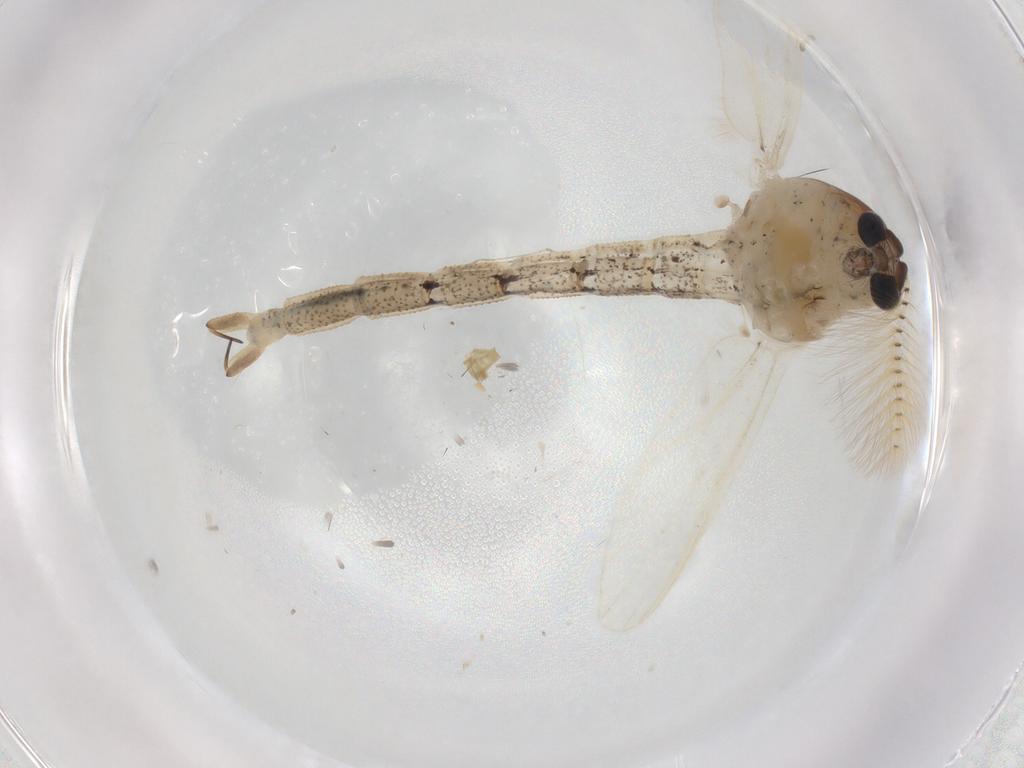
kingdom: Animalia
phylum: Arthropoda
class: Insecta
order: Diptera
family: Chaoboridae
